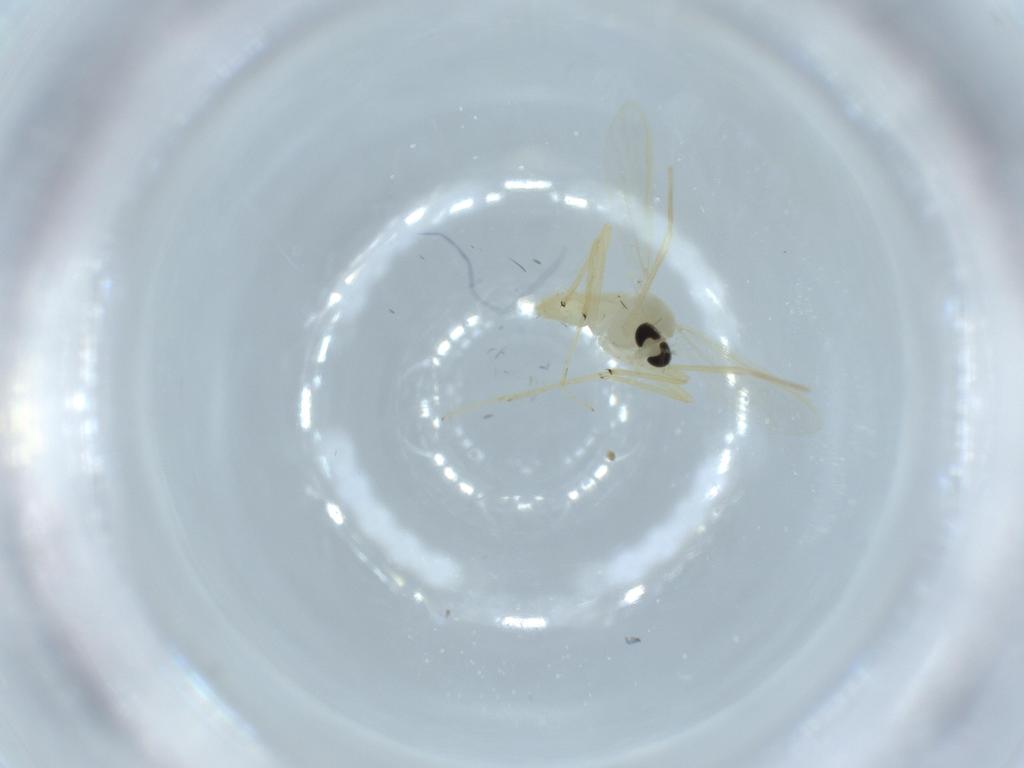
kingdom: Animalia
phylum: Arthropoda
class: Insecta
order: Diptera
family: Chironomidae
